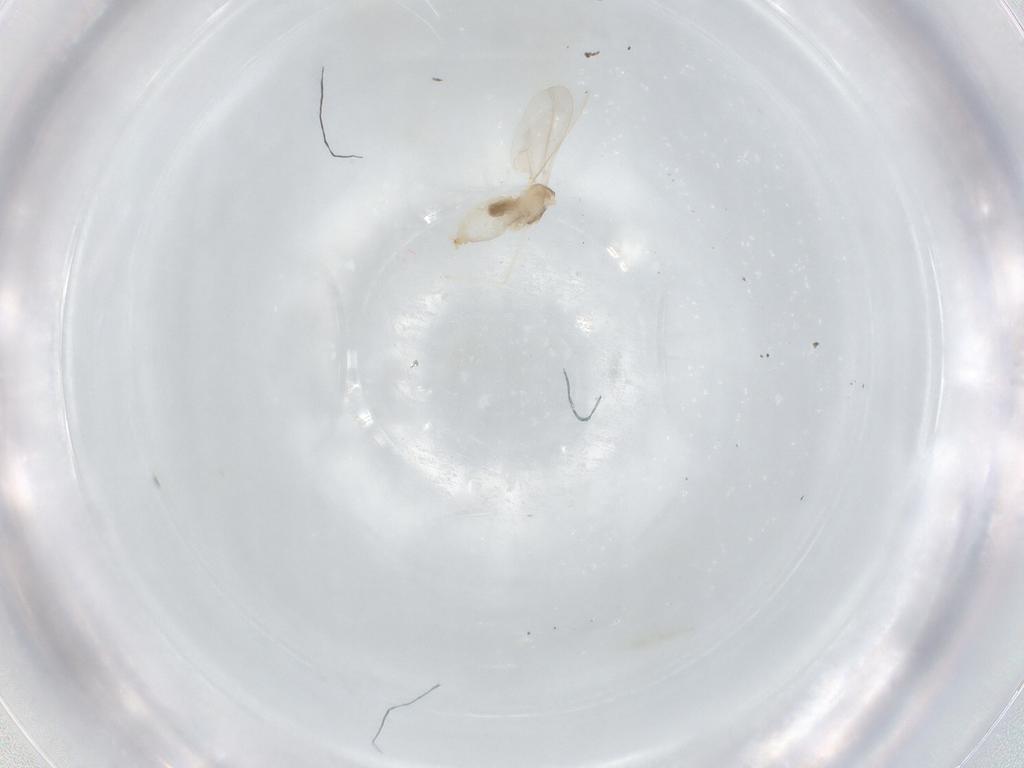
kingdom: Animalia
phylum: Arthropoda
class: Insecta
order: Diptera
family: Cecidomyiidae
